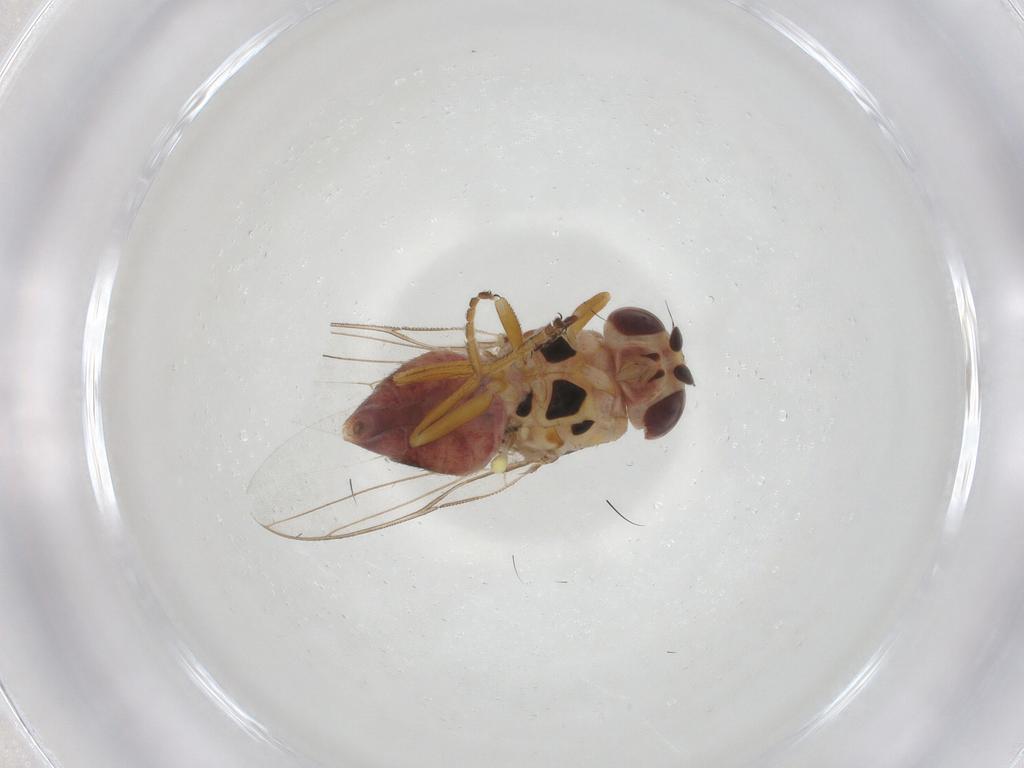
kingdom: Animalia
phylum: Arthropoda
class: Insecta
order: Diptera
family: Chloropidae
